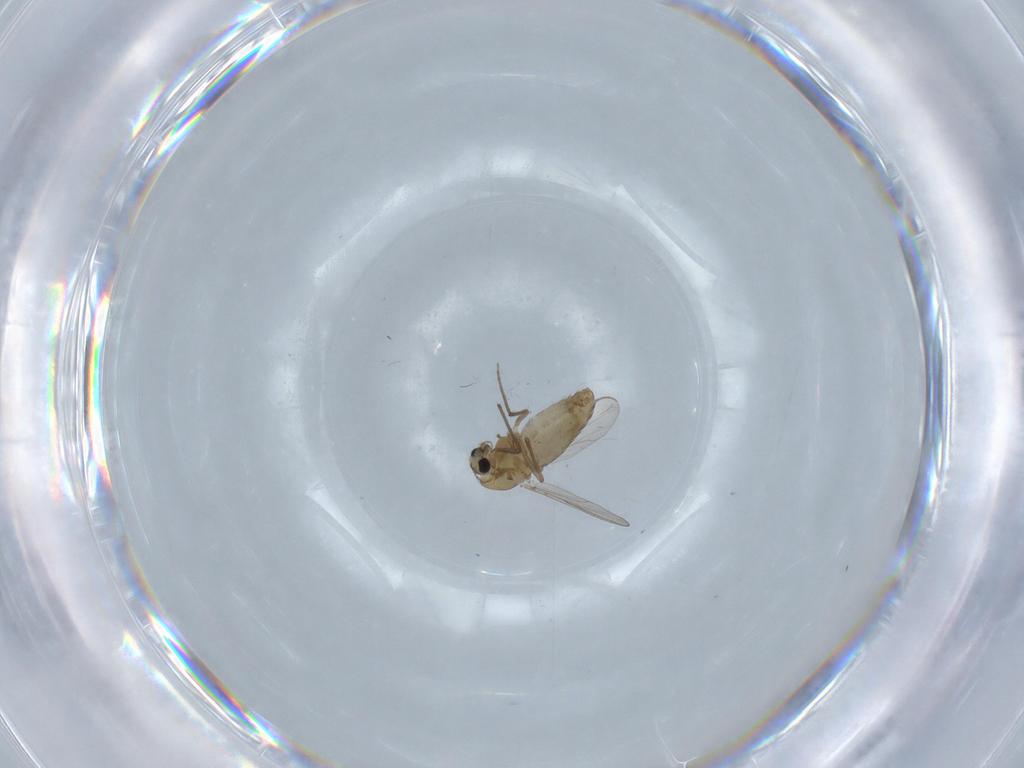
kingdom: Animalia
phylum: Arthropoda
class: Insecta
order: Diptera
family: Chironomidae
